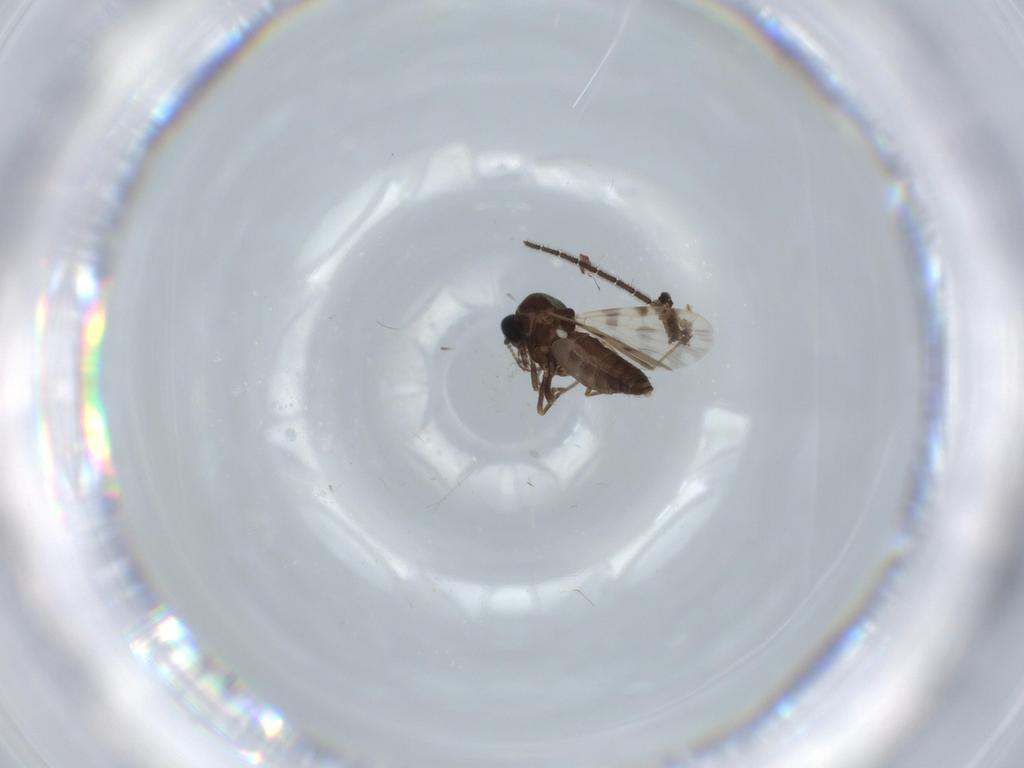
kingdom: Animalia
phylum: Arthropoda
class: Insecta
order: Diptera
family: Ceratopogonidae
